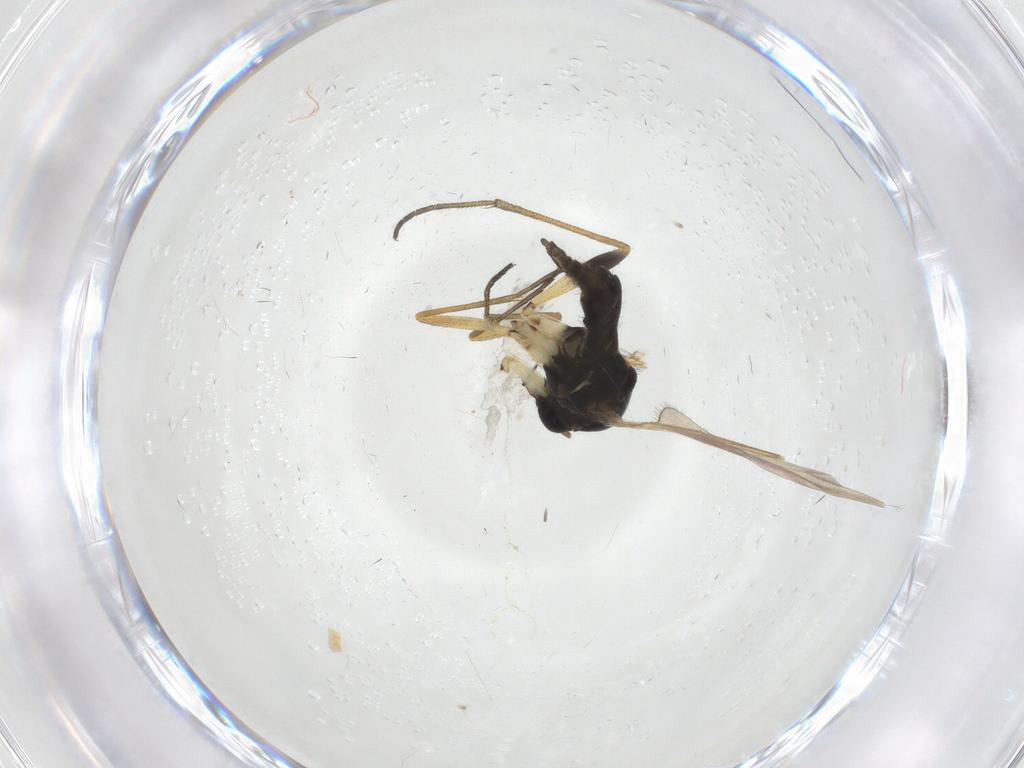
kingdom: Animalia
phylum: Arthropoda
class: Insecta
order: Diptera
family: Sciaridae
